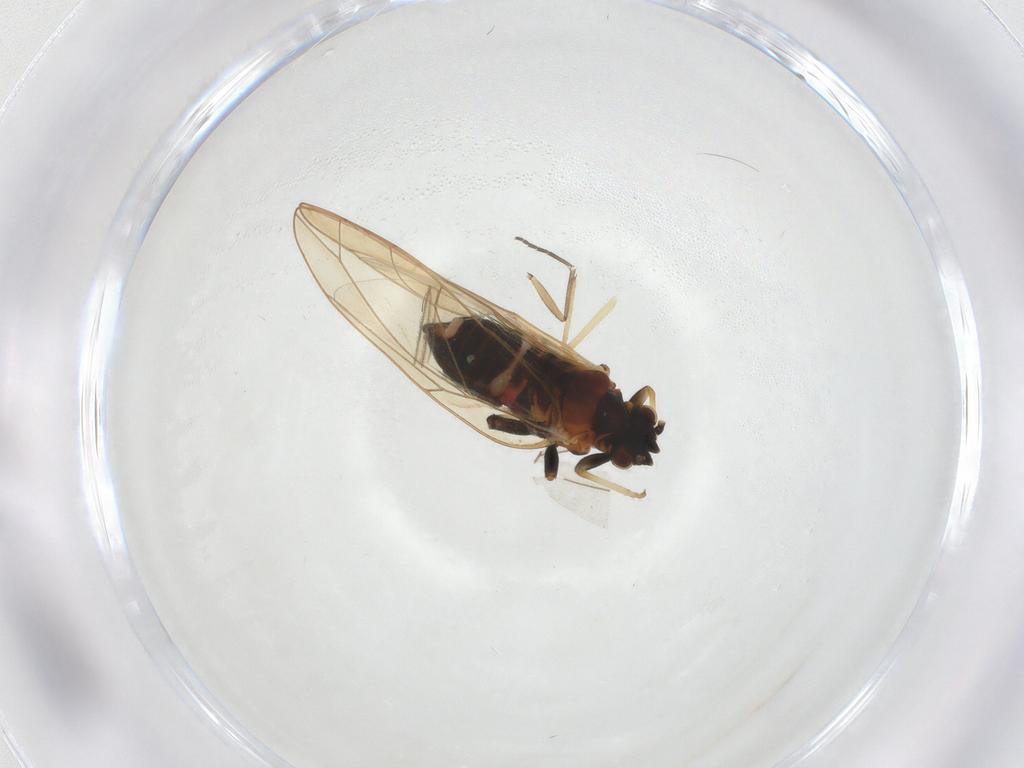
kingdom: Animalia
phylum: Arthropoda
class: Insecta
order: Hemiptera
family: Triozidae
